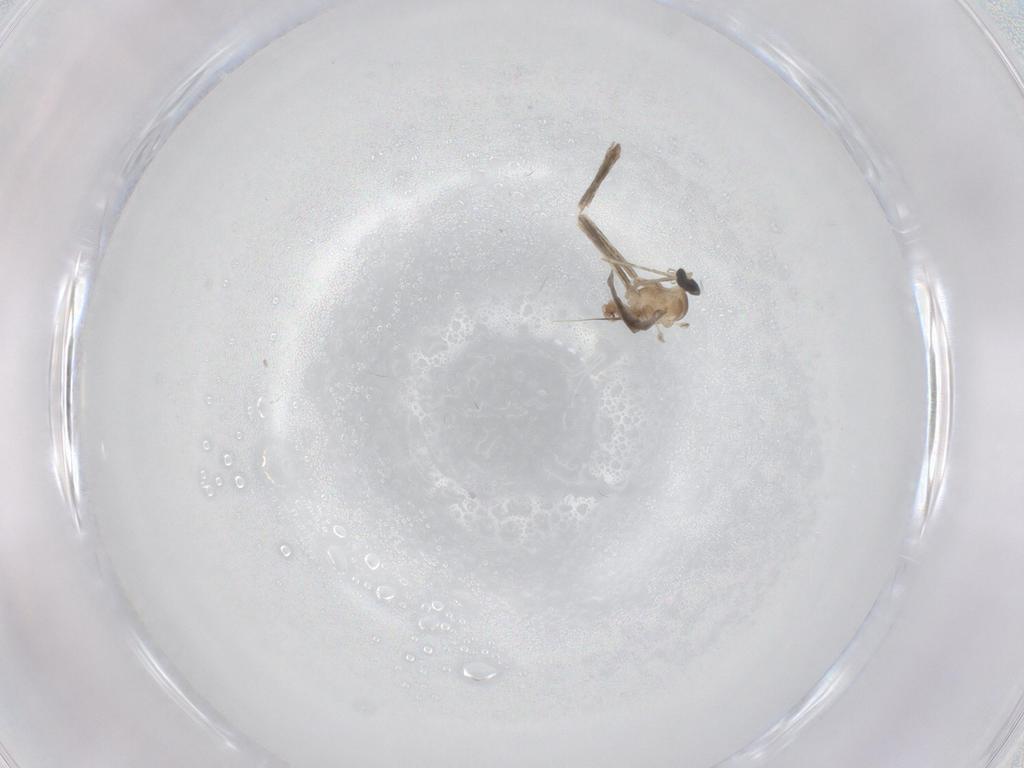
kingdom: Animalia
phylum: Arthropoda
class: Insecta
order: Diptera
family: Cecidomyiidae
